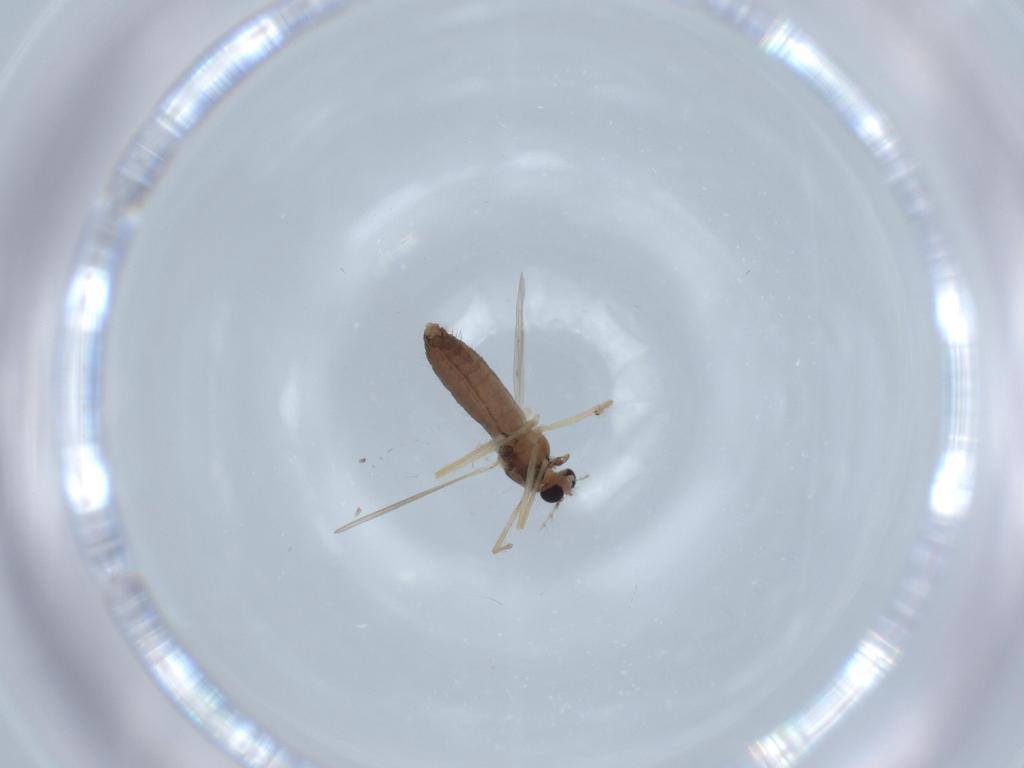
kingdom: Animalia
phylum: Arthropoda
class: Insecta
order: Diptera
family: Chironomidae
